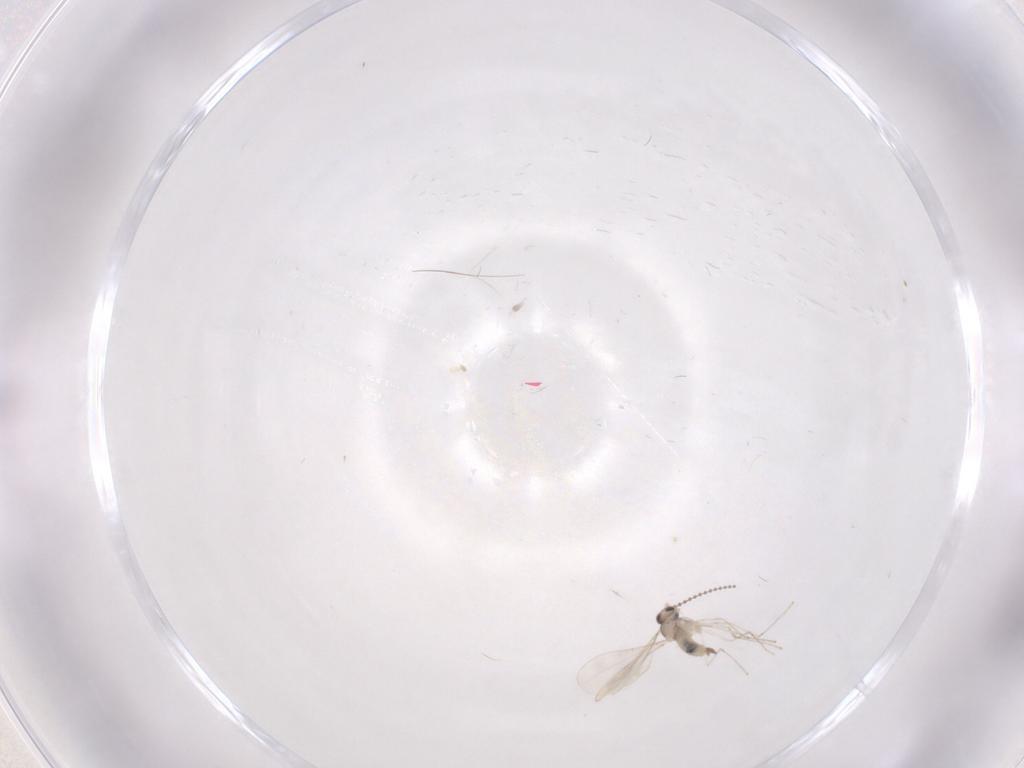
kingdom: Animalia
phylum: Arthropoda
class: Insecta
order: Diptera
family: Cecidomyiidae
